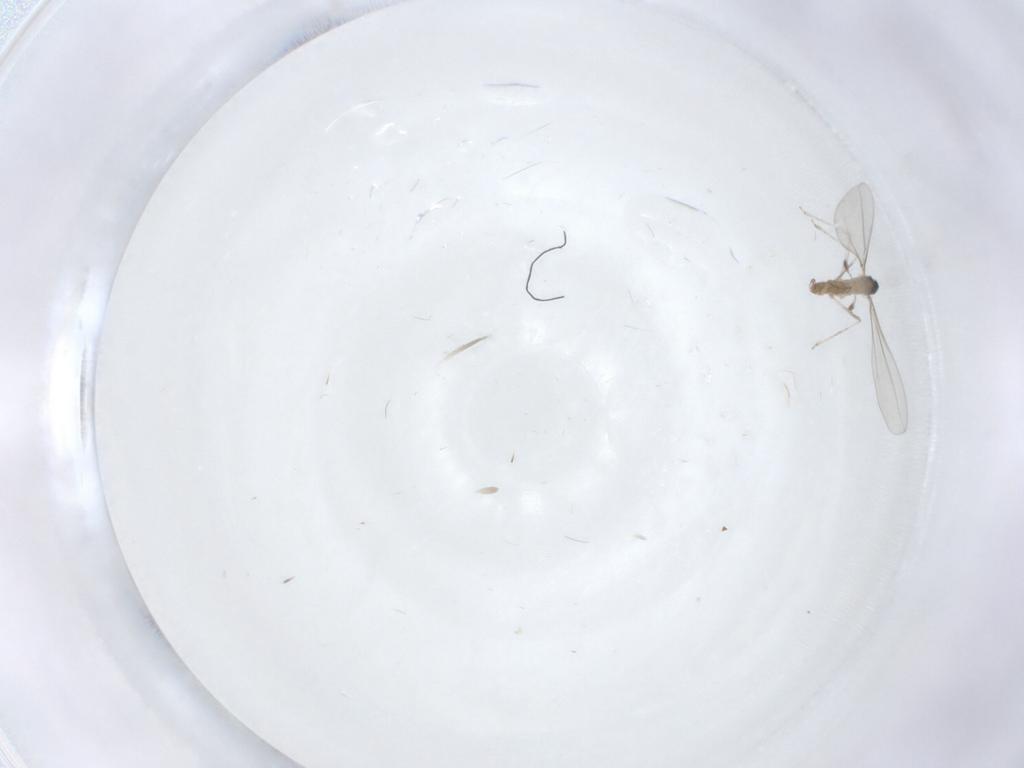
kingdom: Animalia
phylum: Arthropoda
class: Insecta
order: Diptera
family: Cecidomyiidae
